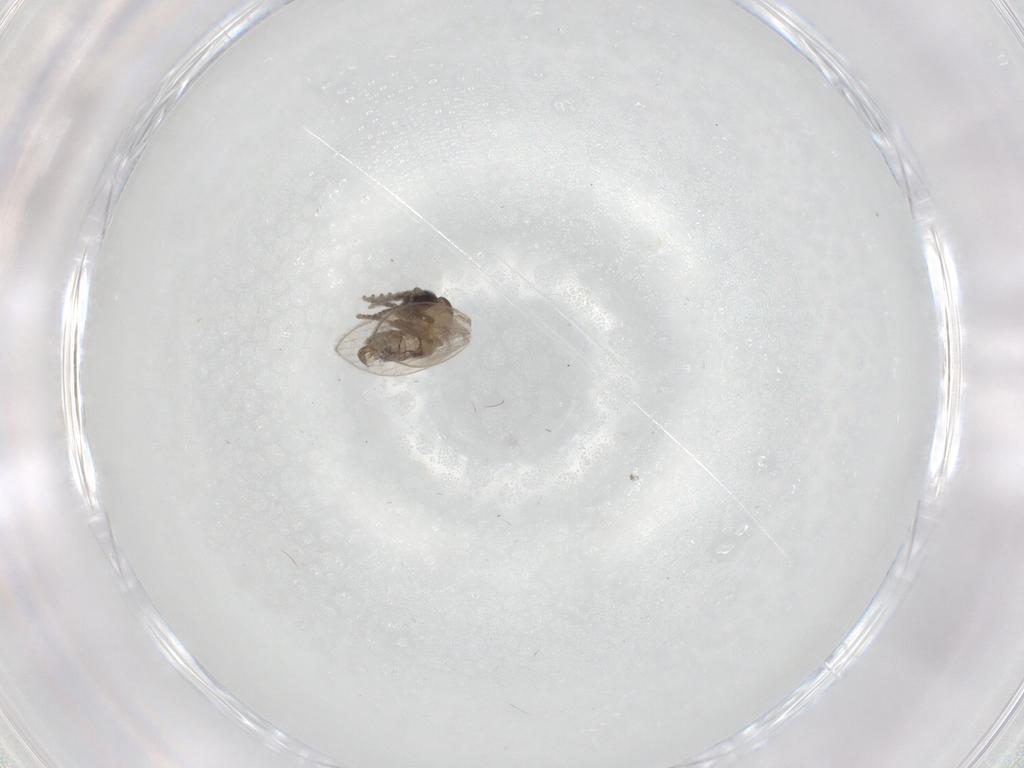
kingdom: Animalia
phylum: Arthropoda
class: Insecta
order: Diptera
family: Psychodidae
